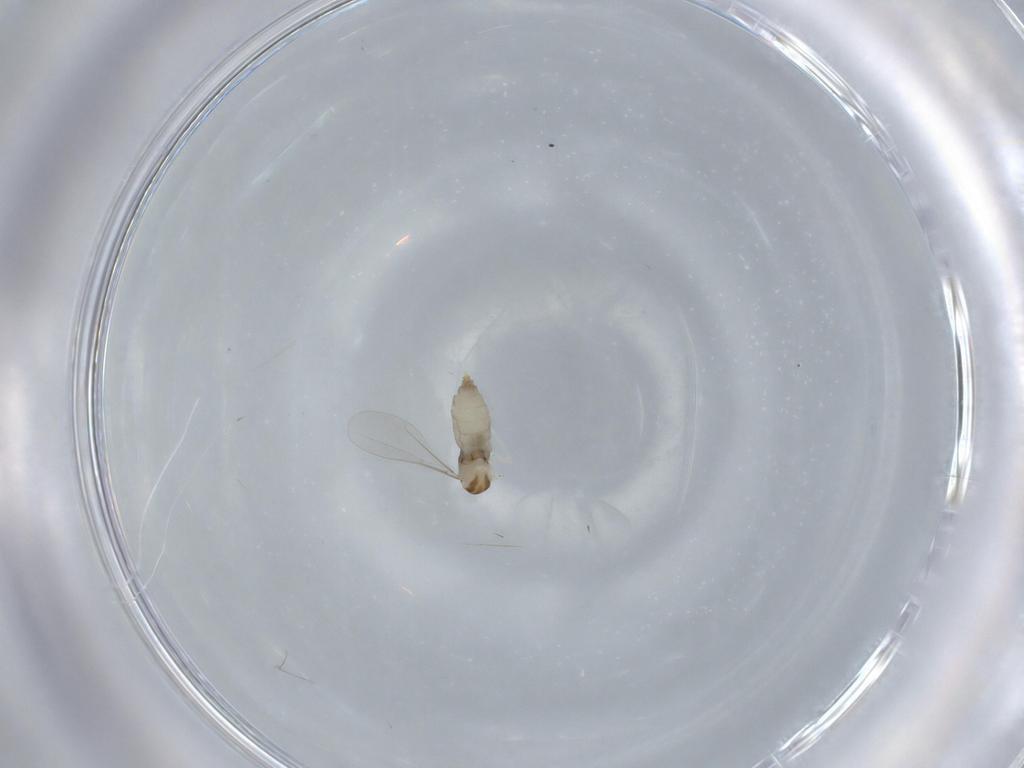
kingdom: Animalia
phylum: Arthropoda
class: Insecta
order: Diptera
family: Cecidomyiidae
